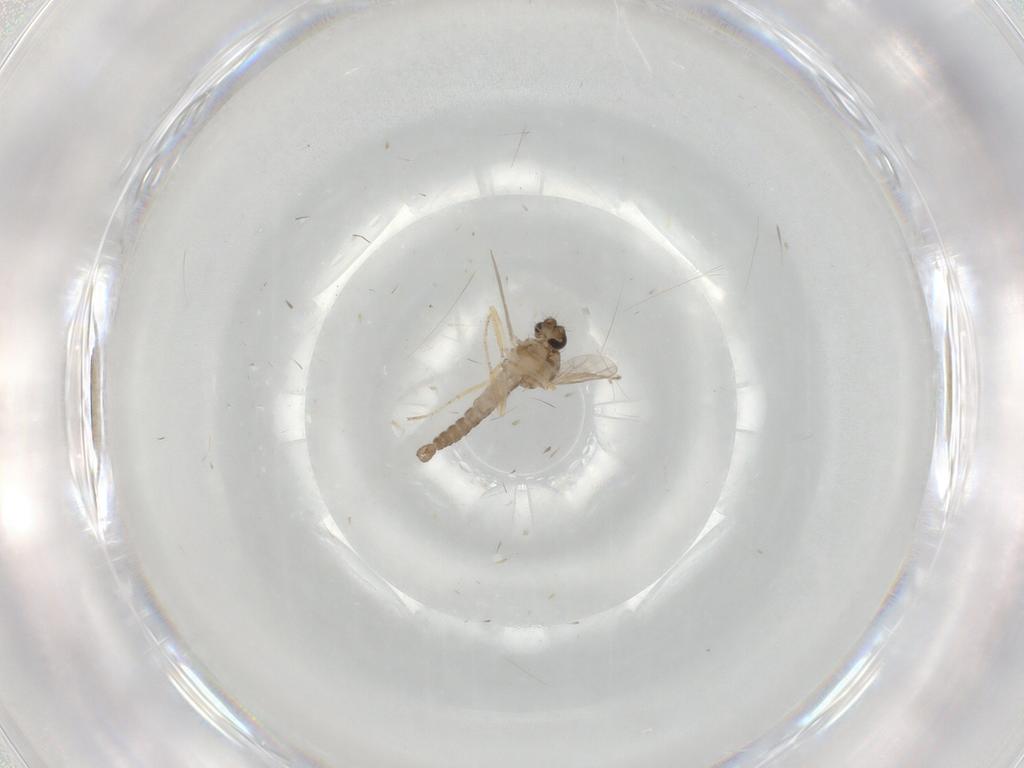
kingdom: Animalia
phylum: Arthropoda
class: Insecta
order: Diptera
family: Ceratopogonidae
